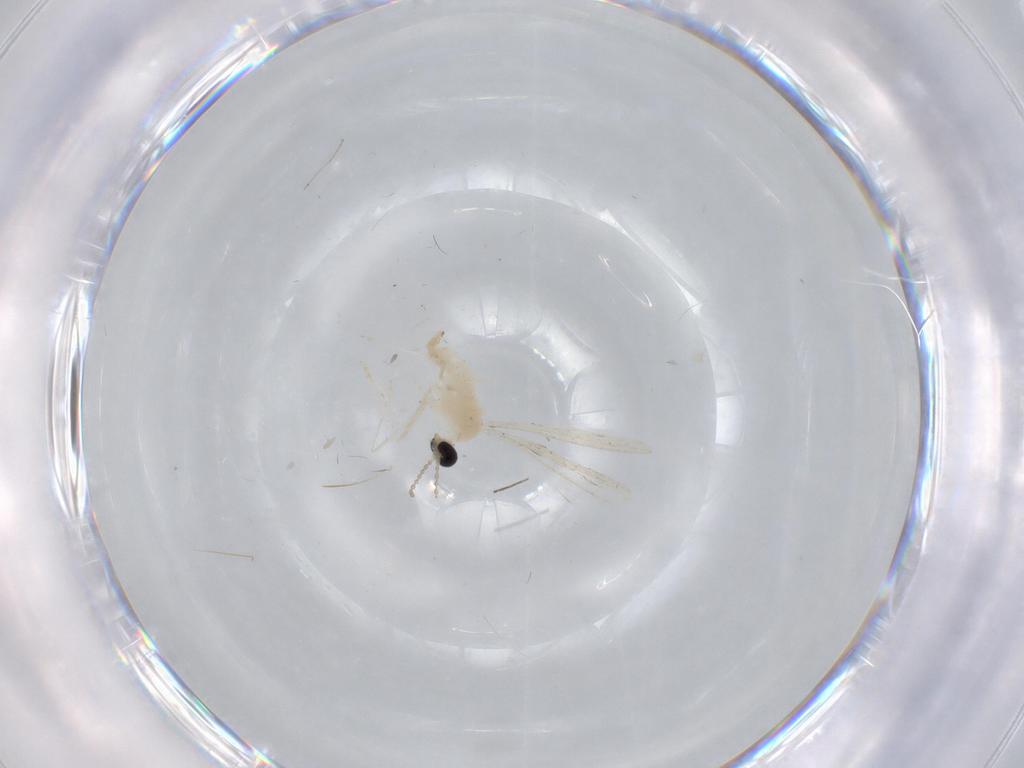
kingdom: Animalia
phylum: Arthropoda
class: Insecta
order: Diptera
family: Cecidomyiidae
